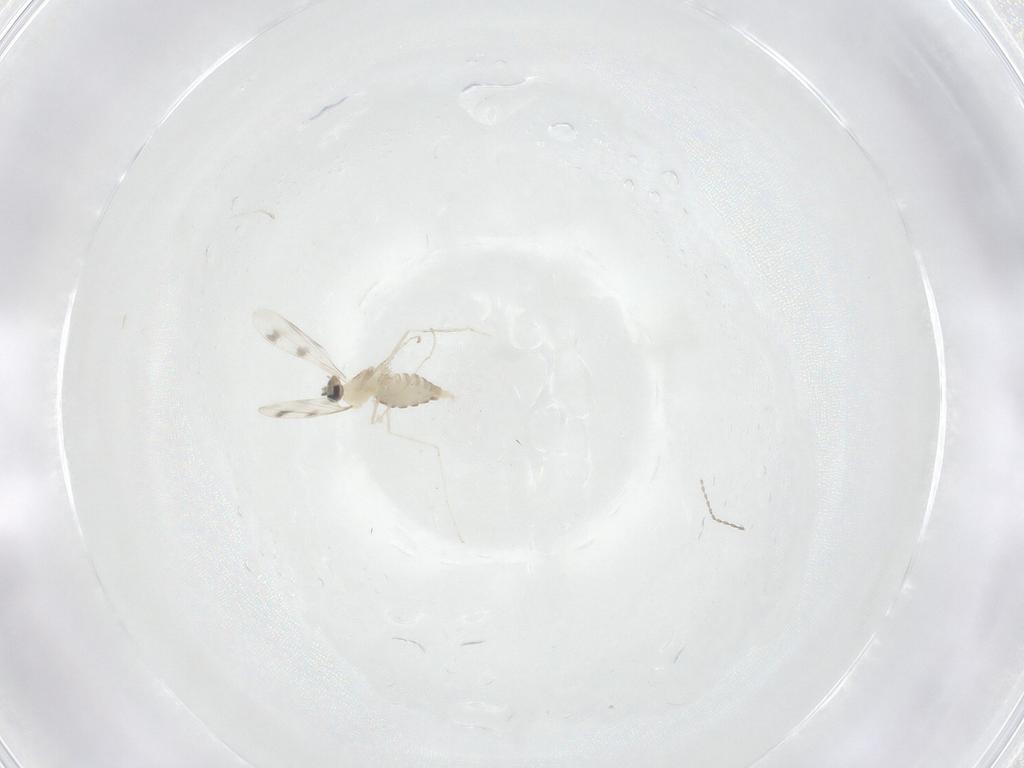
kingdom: Animalia
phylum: Arthropoda
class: Insecta
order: Diptera
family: Cecidomyiidae
